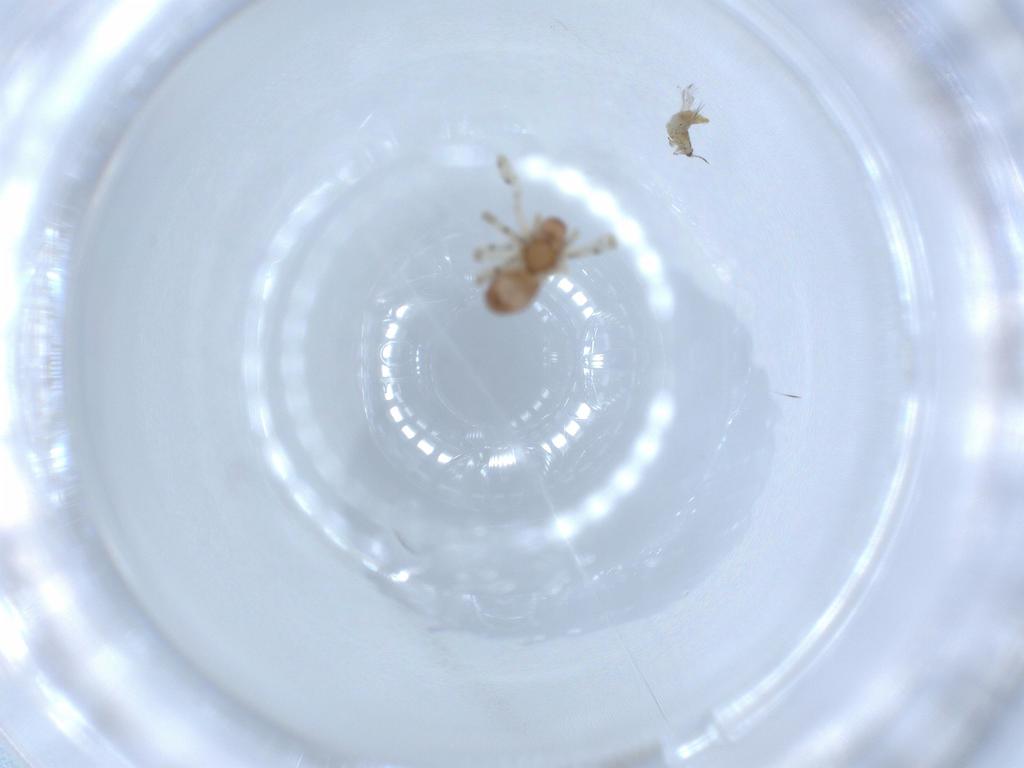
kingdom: Animalia
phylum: Arthropoda
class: Arachnida
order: Araneae
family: Dictynidae
